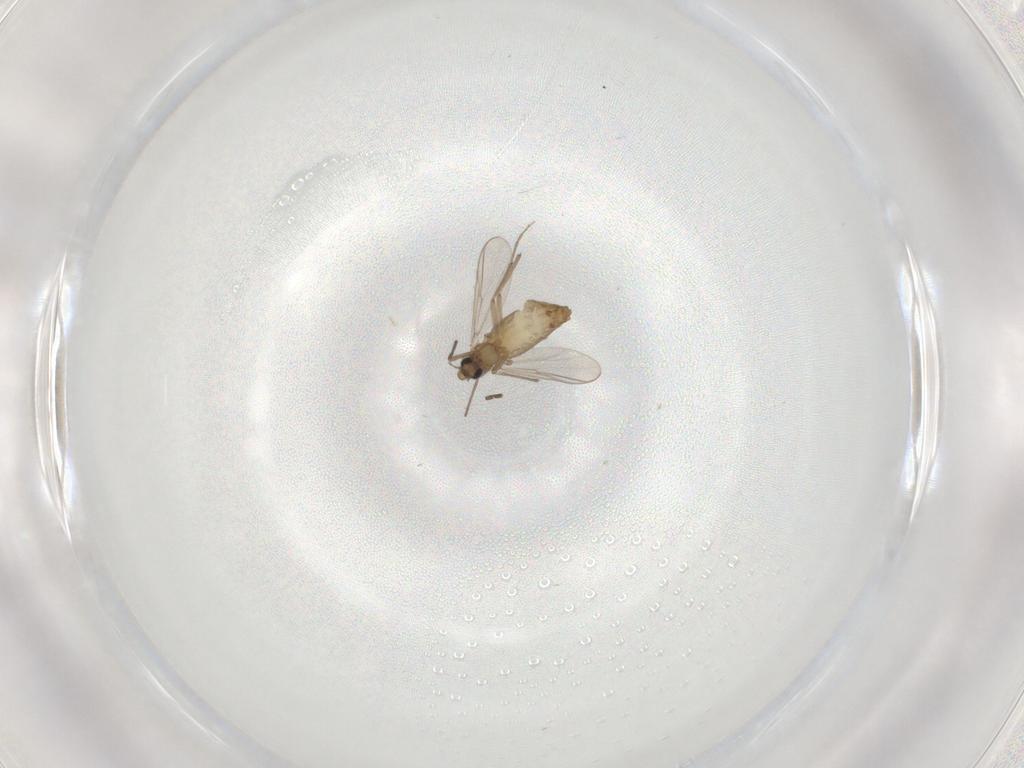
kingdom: Animalia
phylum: Arthropoda
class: Insecta
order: Diptera
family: Chironomidae
